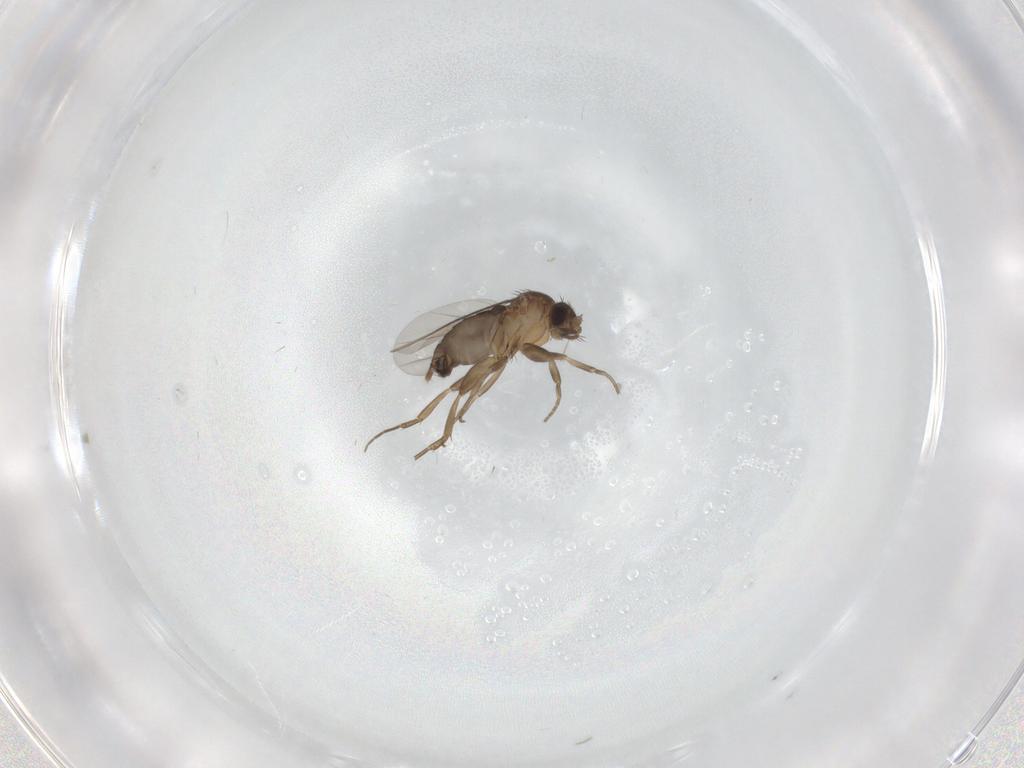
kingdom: Animalia
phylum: Arthropoda
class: Insecta
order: Diptera
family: Phoridae
